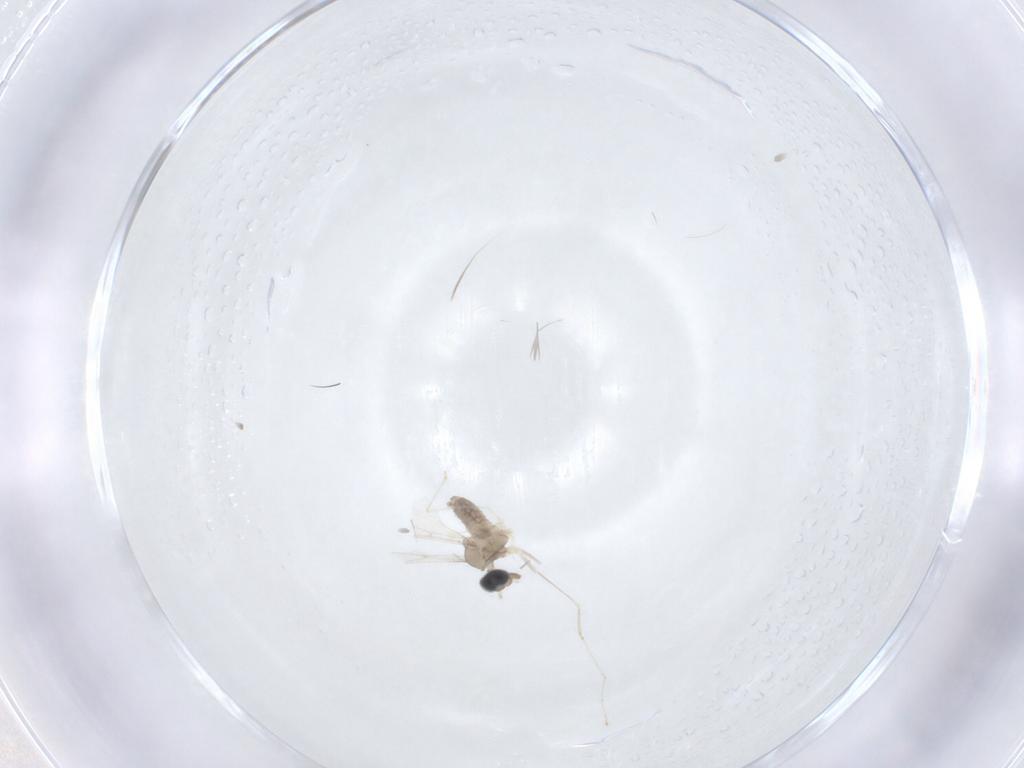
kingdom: Animalia
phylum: Arthropoda
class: Insecta
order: Diptera
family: Cecidomyiidae
